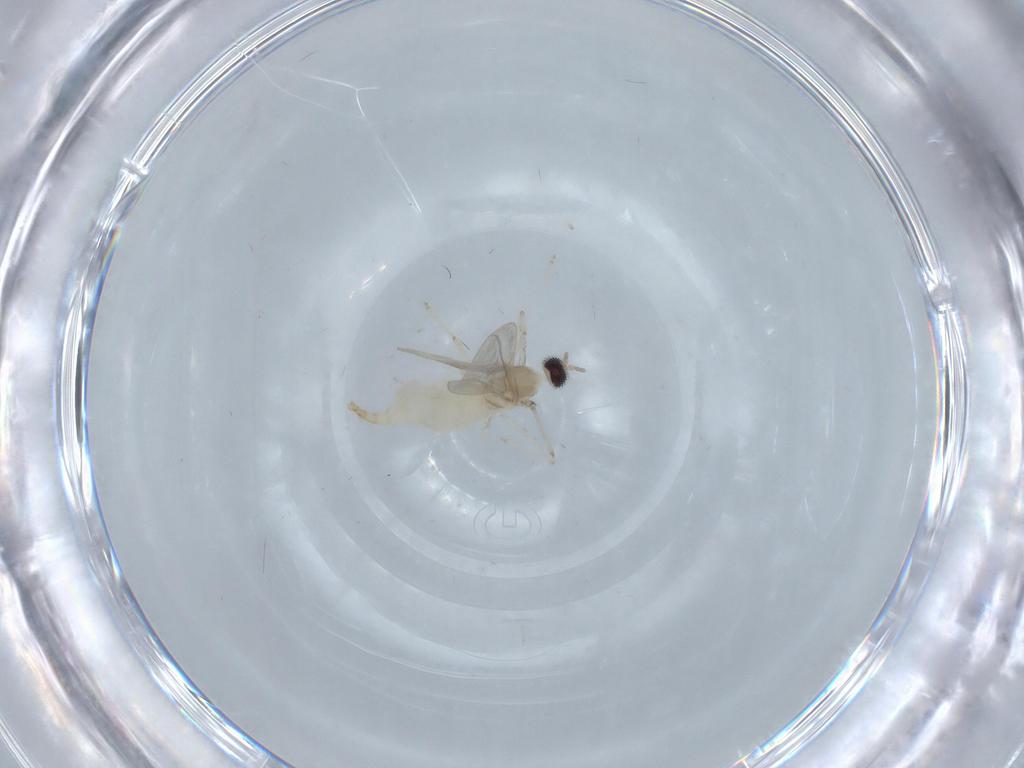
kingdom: Animalia
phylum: Arthropoda
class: Insecta
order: Diptera
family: Cecidomyiidae
